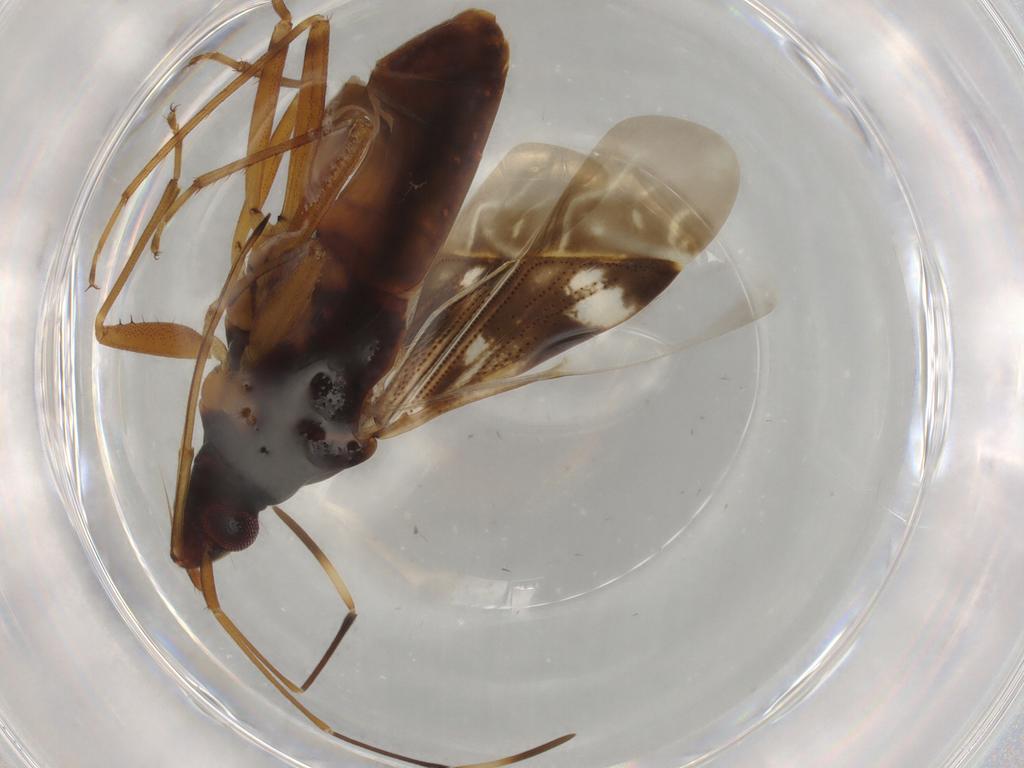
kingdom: Animalia
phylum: Arthropoda
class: Insecta
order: Hemiptera
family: Rhyparochromidae
